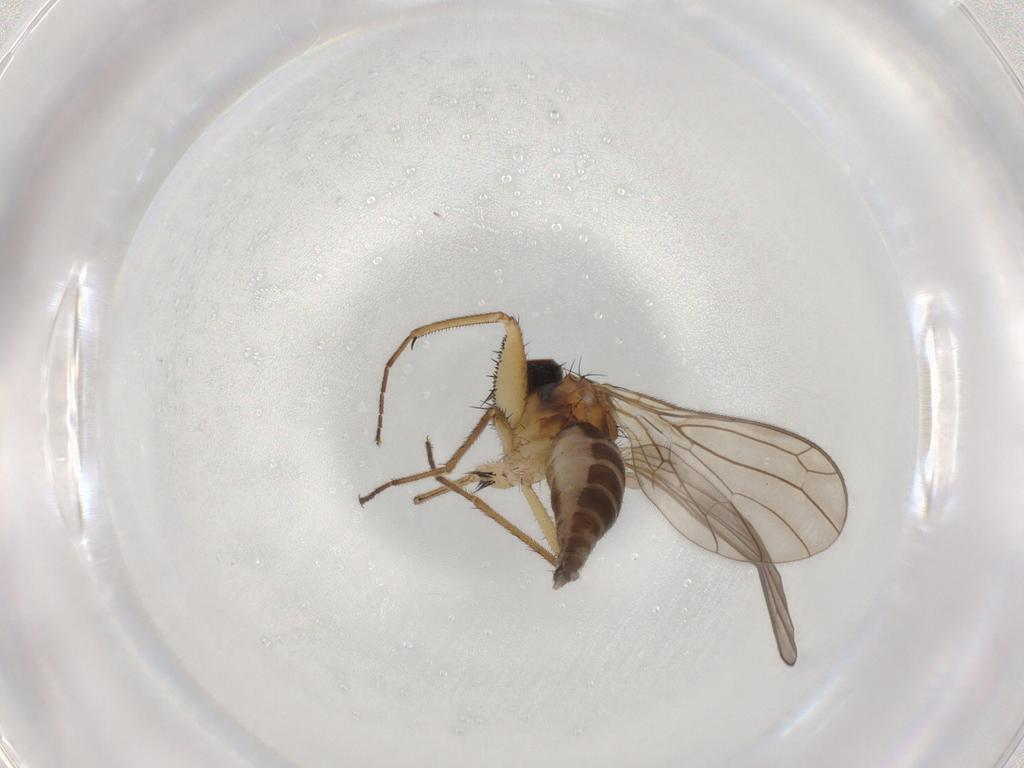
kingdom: Animalia
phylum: Arthropoda
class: Insecta
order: Diptera
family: Empididae
